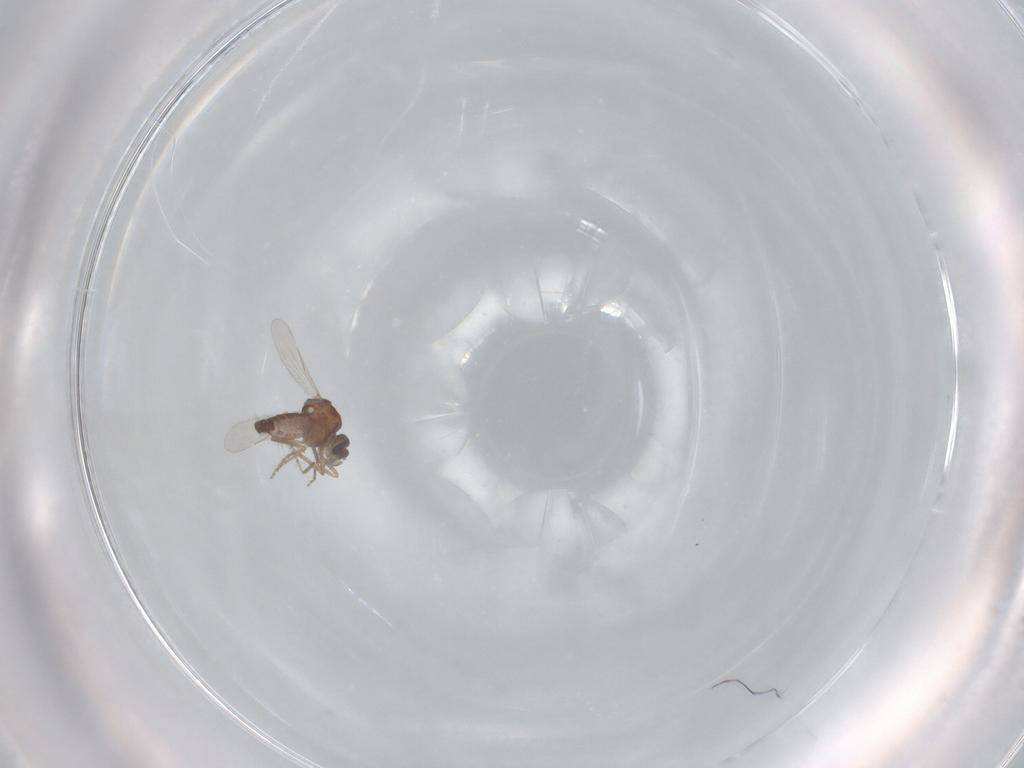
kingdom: Animalia
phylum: Arthropoda
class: Insecta
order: Diptera
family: Ceratopogonidae
